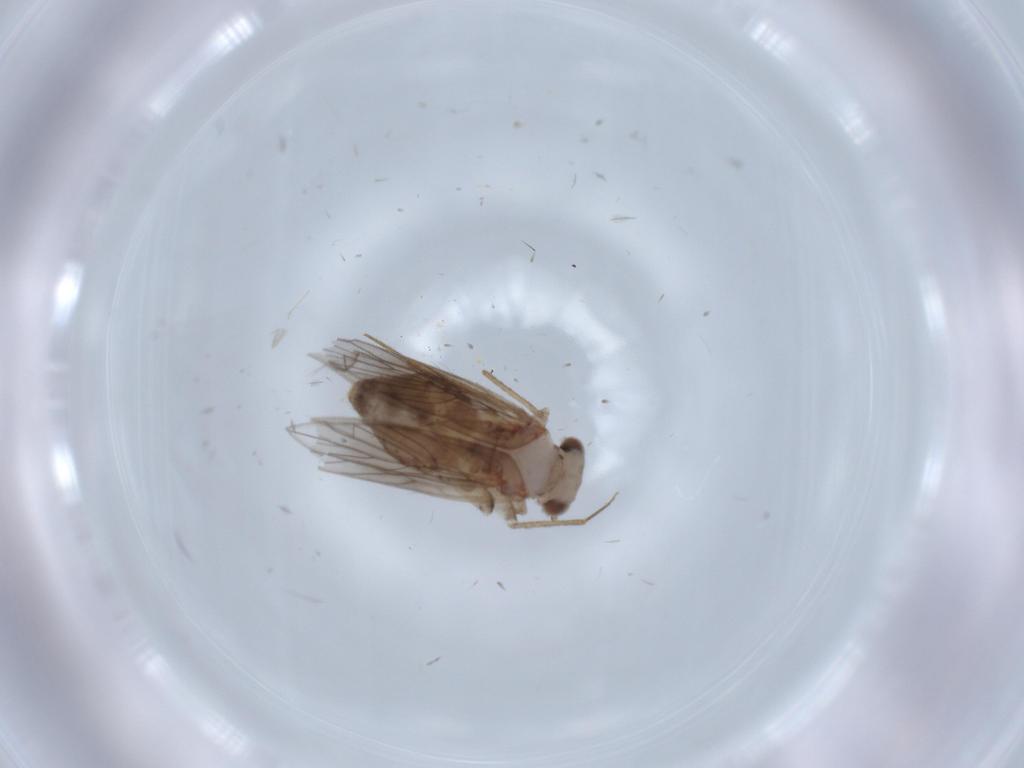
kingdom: Animalia
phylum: Arthropoda
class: Insecta
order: Psocodea
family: Lepidopsocidae
